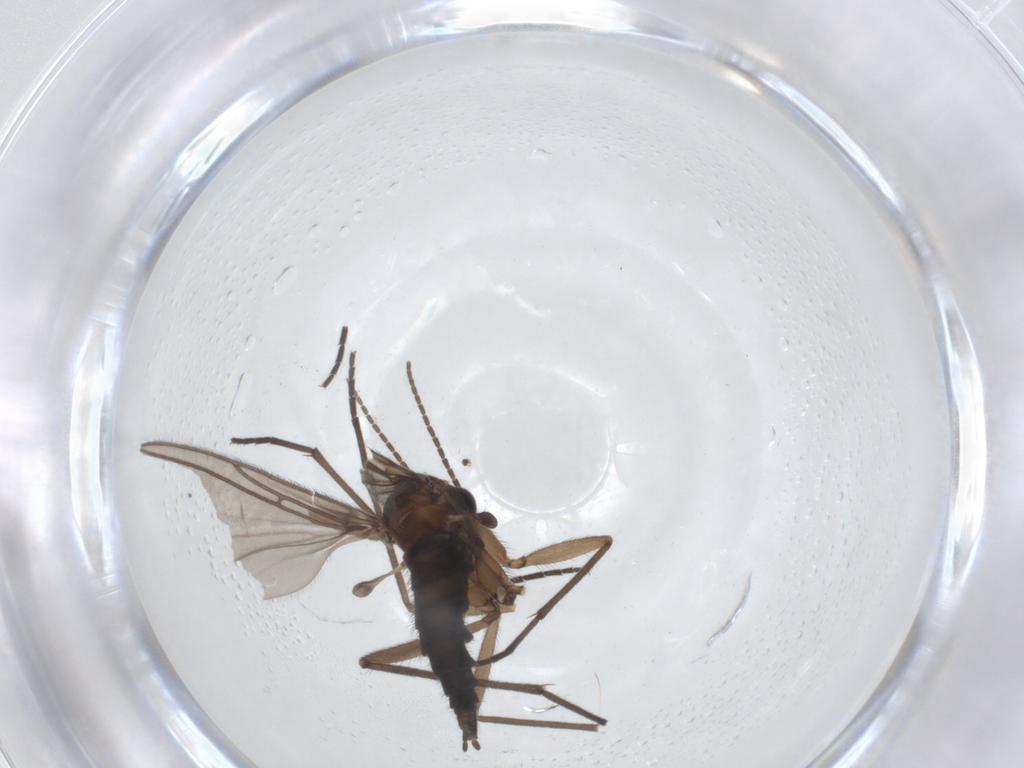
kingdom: Animalia
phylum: Arthropoda
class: Insecta
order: Diptera
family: Sciaridae
